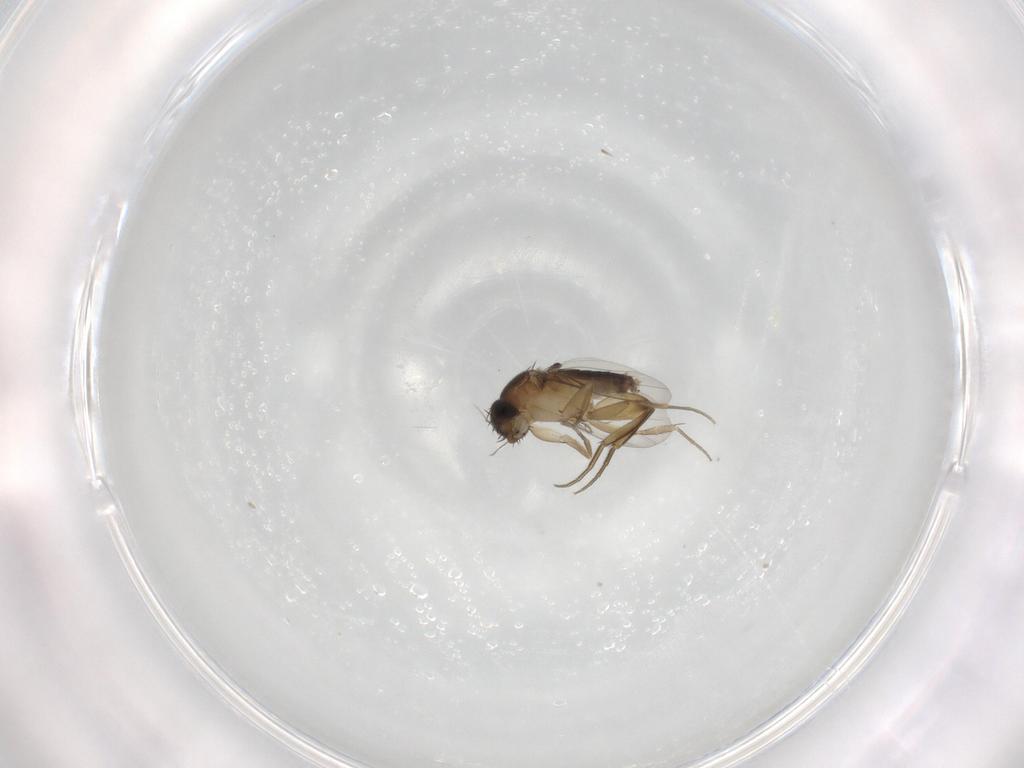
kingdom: Animalia
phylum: Arthropoda
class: Insecta
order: Diptera
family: Phoridae
